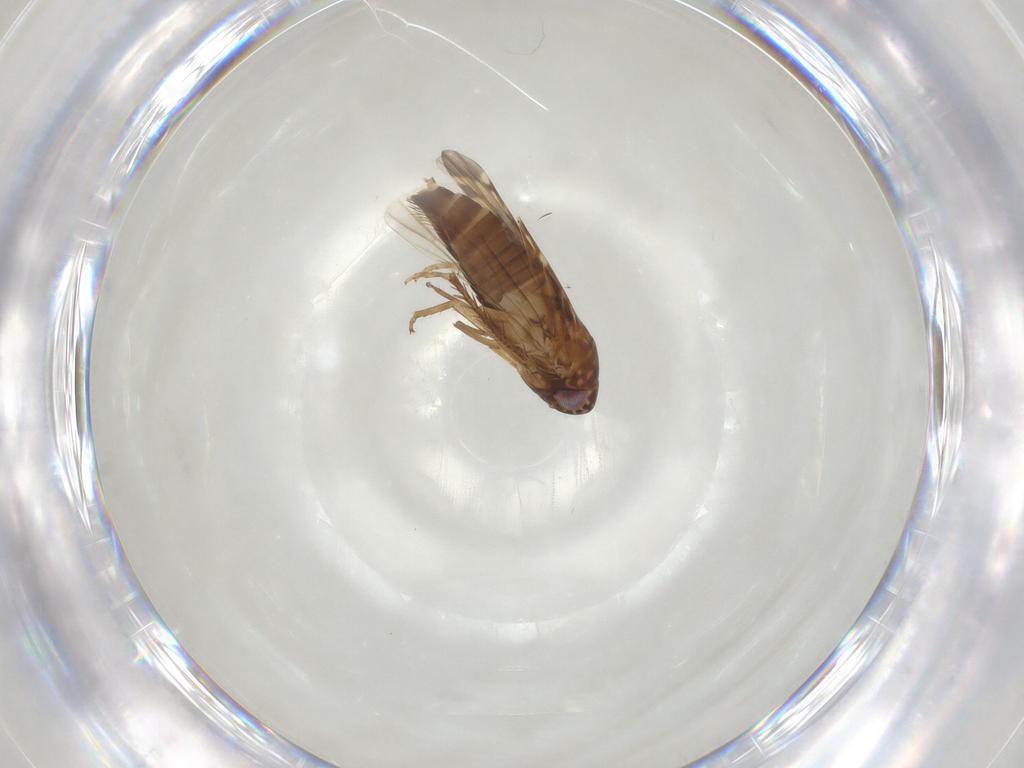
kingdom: Animalia
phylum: Arthropoda
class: Insecta
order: Hemiptera
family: Cicadellidae
